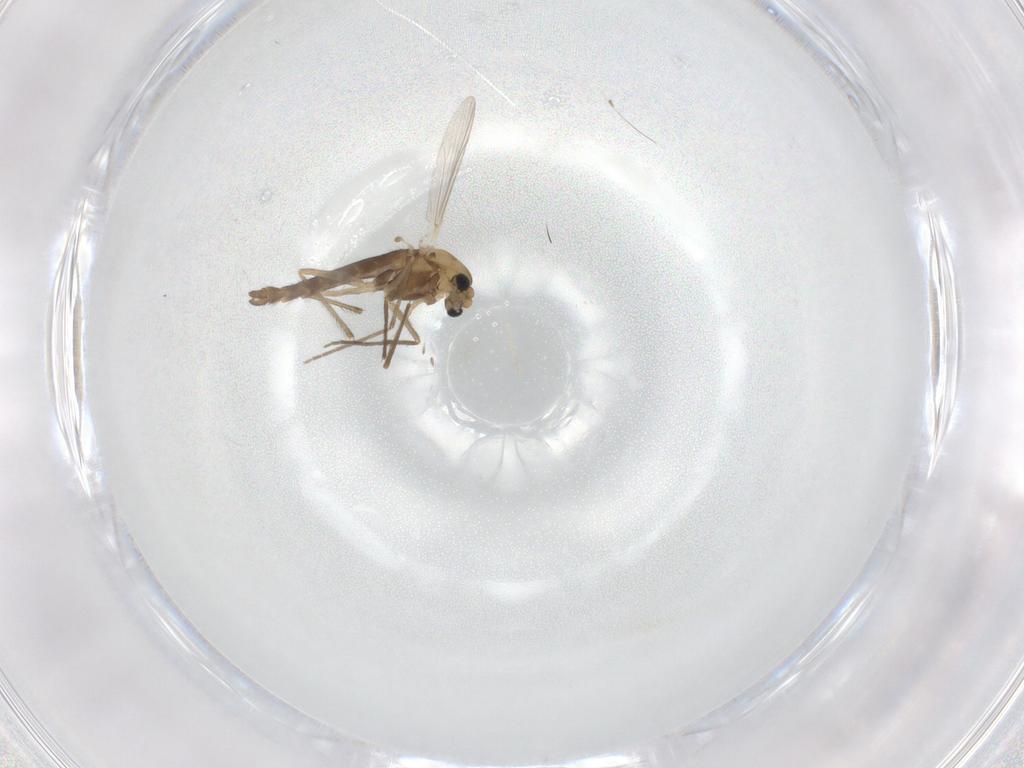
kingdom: Animalia
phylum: Arthropoda
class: Insecta
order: Diptera
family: Chironomidae
